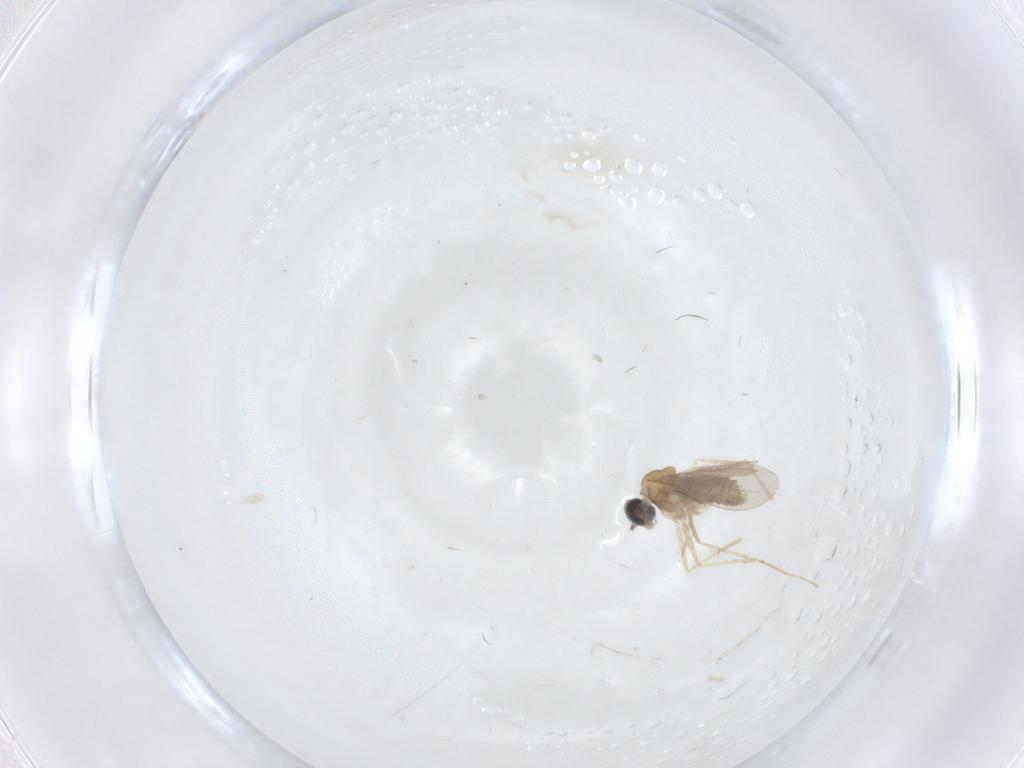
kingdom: Animalia
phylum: Arthropoda
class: Insecta
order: Diptera
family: Cecidomyiidae
